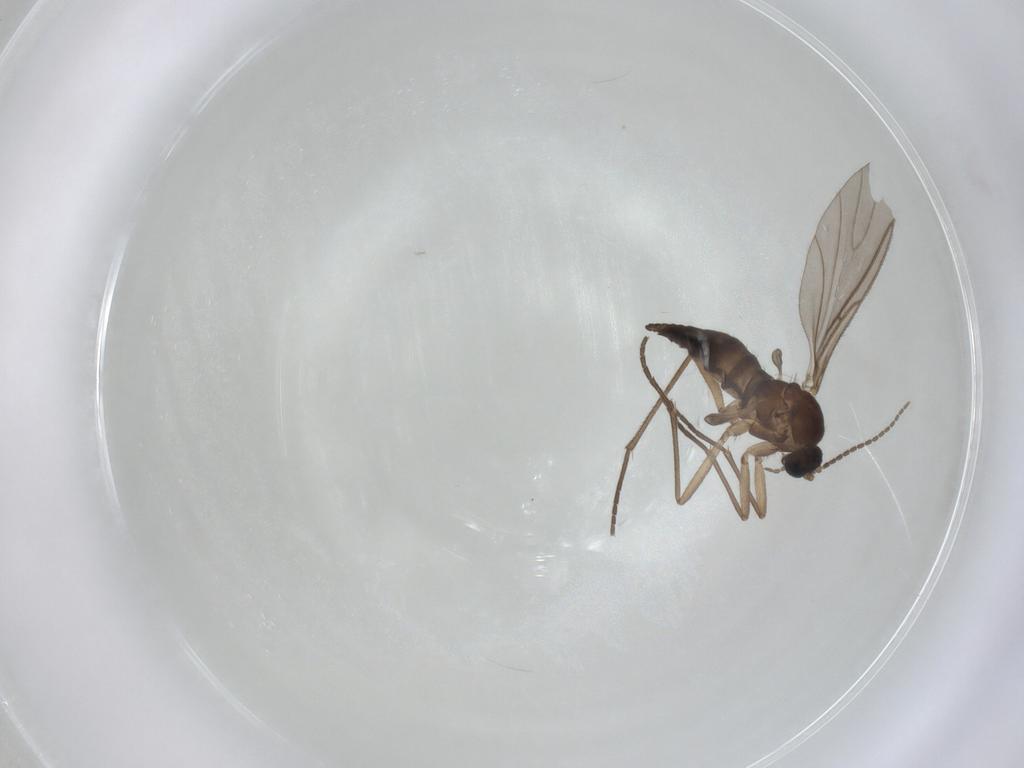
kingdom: Animalia
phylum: Arthropoda
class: Insecta
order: Diptera
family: Sciaridae
